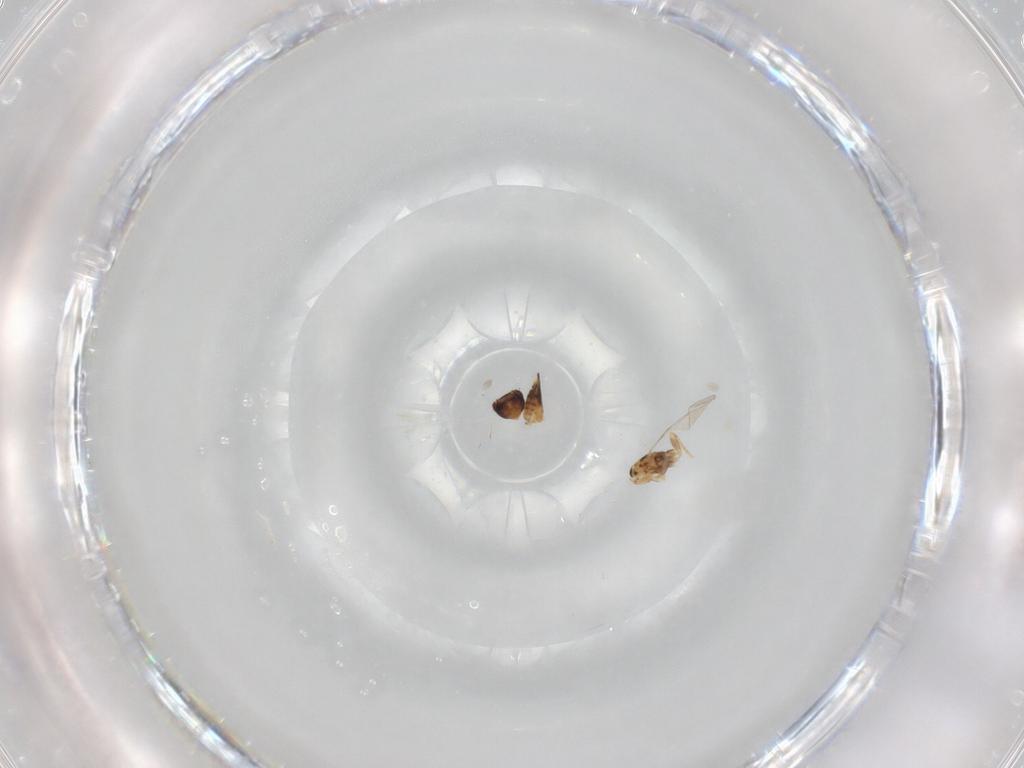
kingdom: Animalia
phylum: Arthropoda
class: Insecta
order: Hymenoptera
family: Mymaridae
